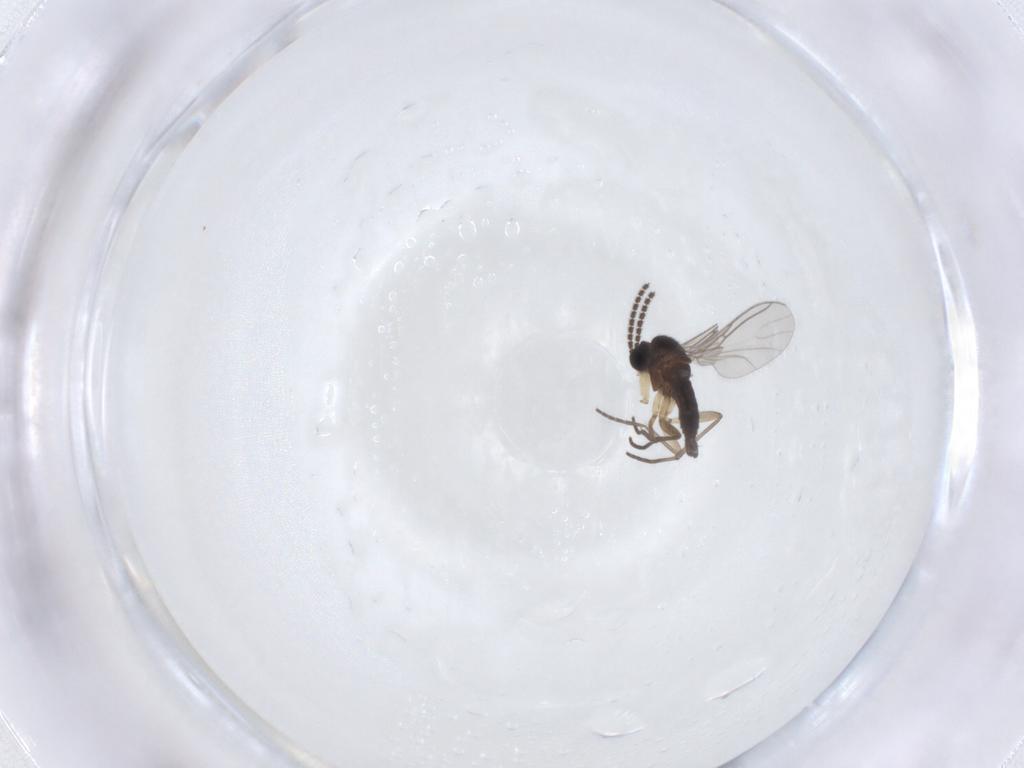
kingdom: Animalia
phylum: Arthropoda
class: Insecta
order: Diptera
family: Sciaridae
